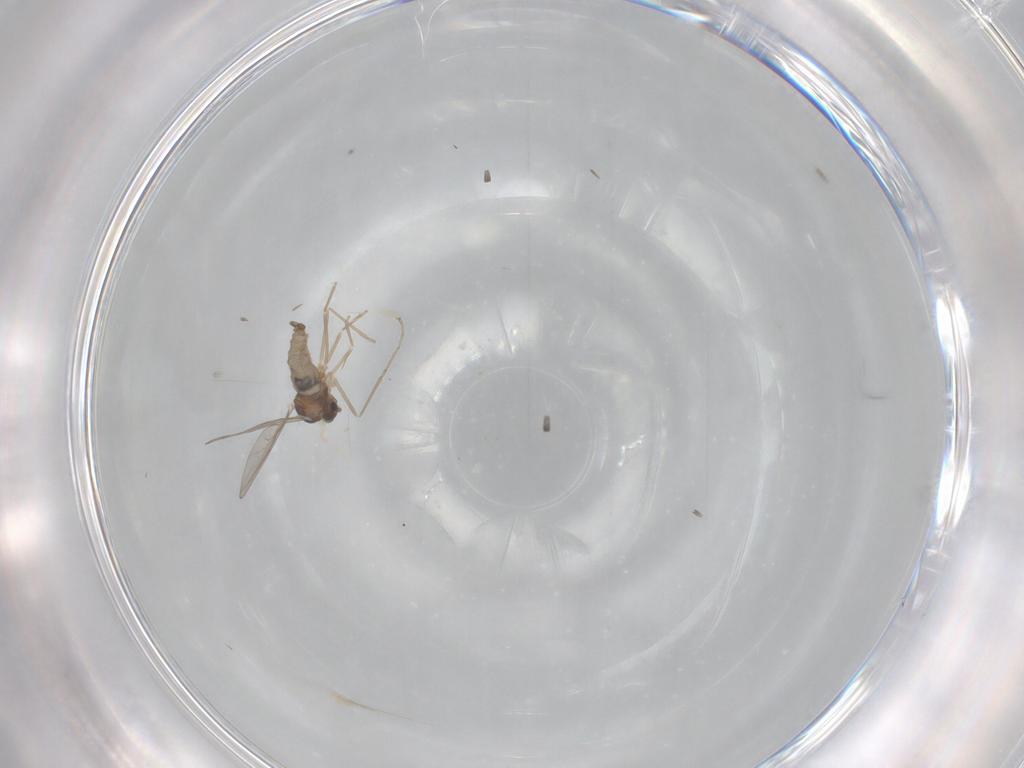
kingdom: Animalia
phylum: Arthropoda
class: Insecta
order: Diptera
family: Cecidomyiidae
